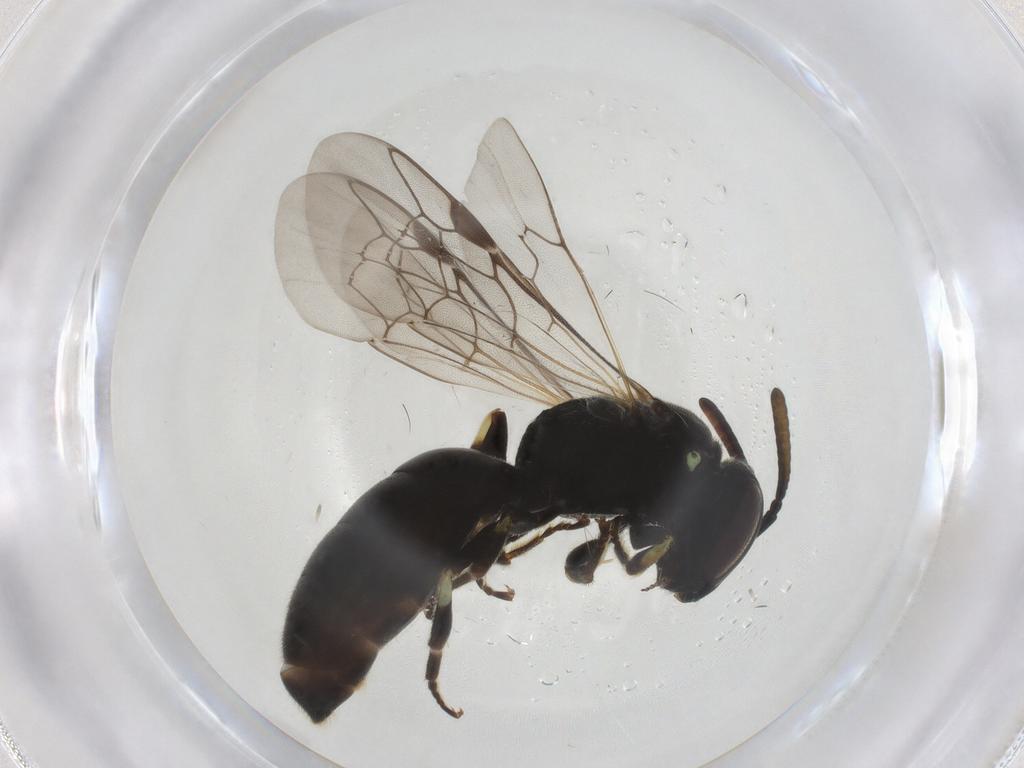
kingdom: Animalia
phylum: Arthropoda
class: Insecta
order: Hymenoptera
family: Colletidae
